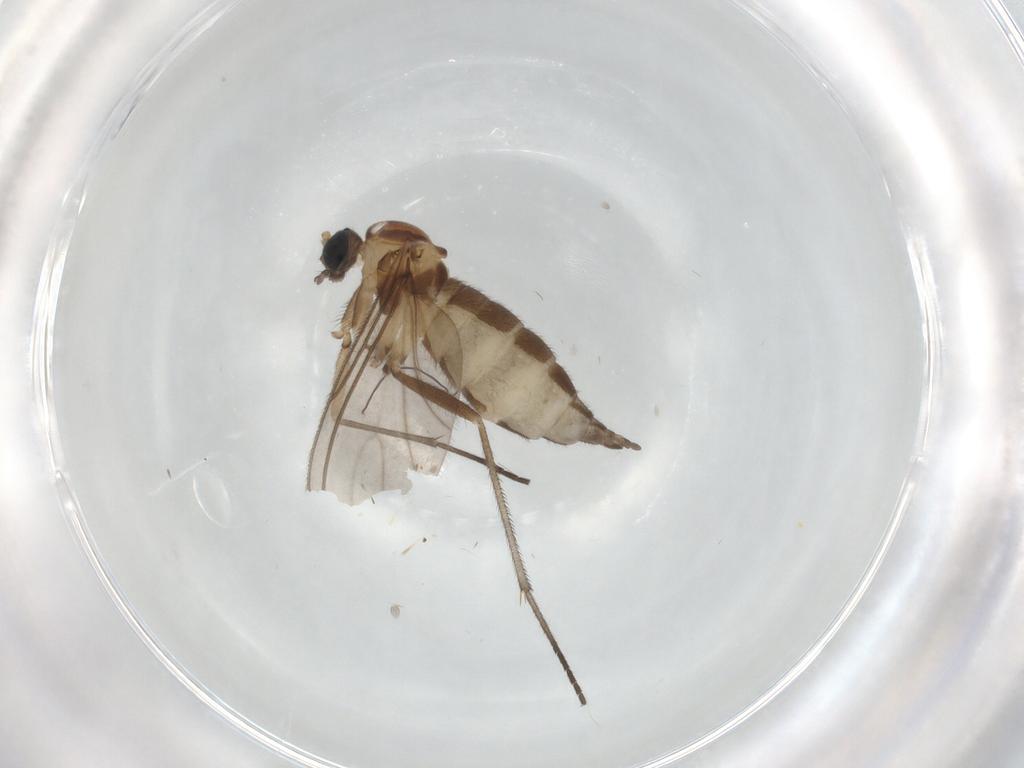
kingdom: Animalia
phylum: Arthropoda
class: Insecta
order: Diptera
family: Sciaridae
